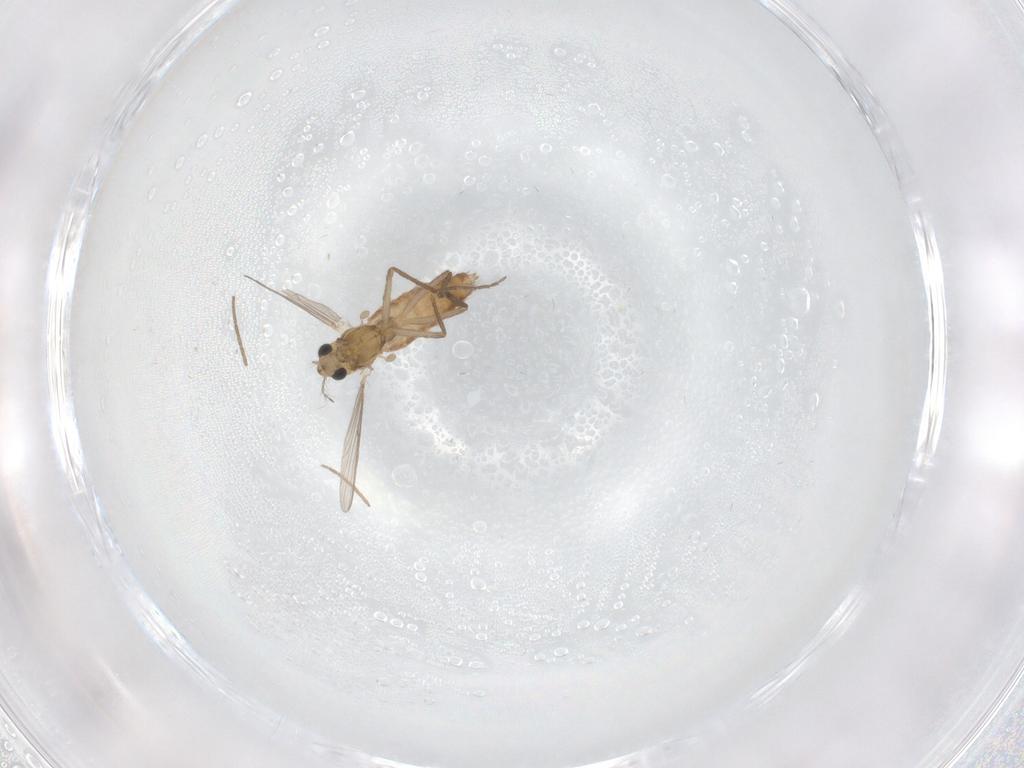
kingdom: Animalia
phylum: Arthropoda
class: Insecta
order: Diptera
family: Chironomidae
